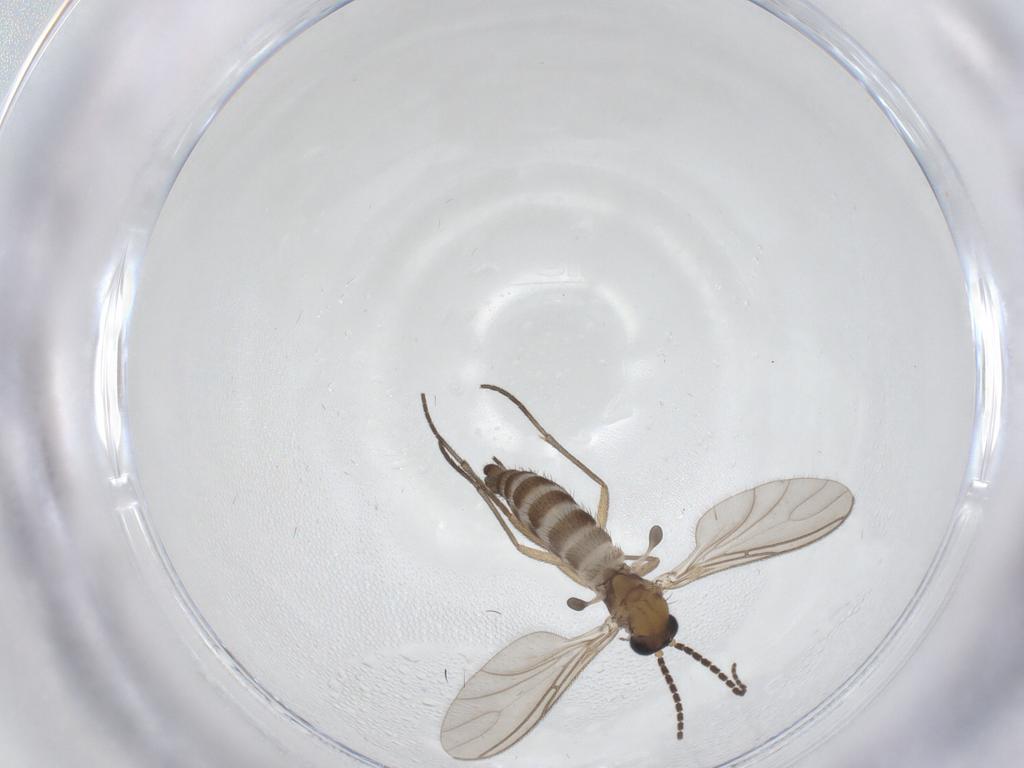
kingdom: Animalia
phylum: Arthropoda
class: Insecta
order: Diptera
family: Sciaridae
